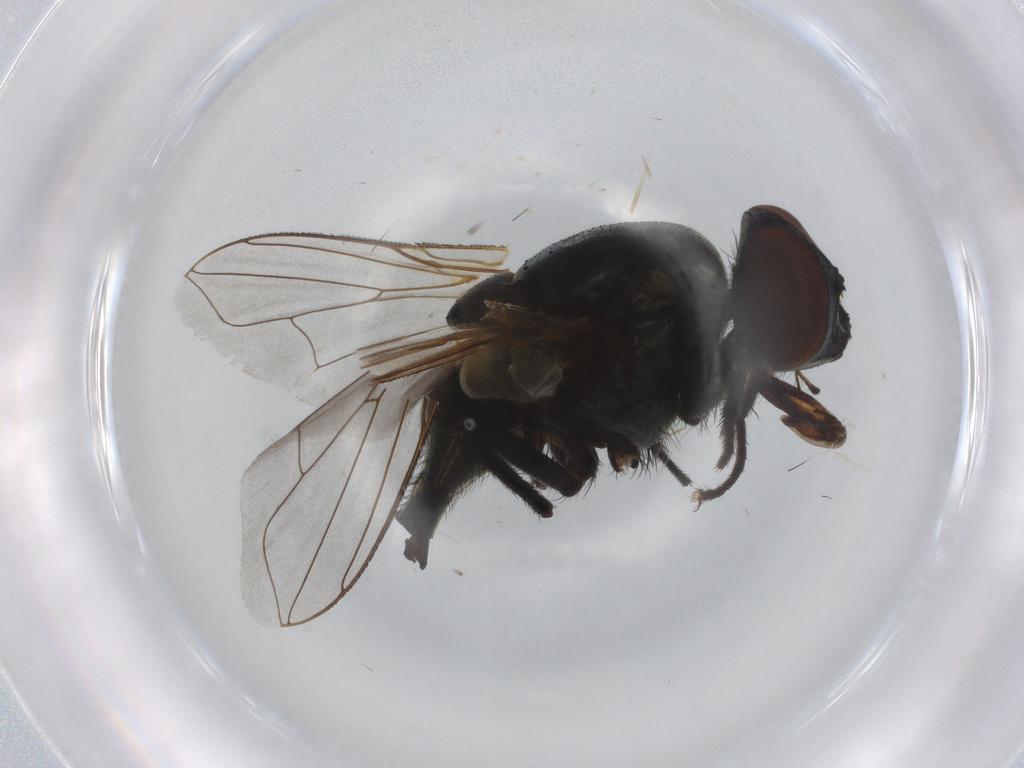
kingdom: Animalia
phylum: Arthropoda
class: Insecta
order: Diptera
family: Muscidae
